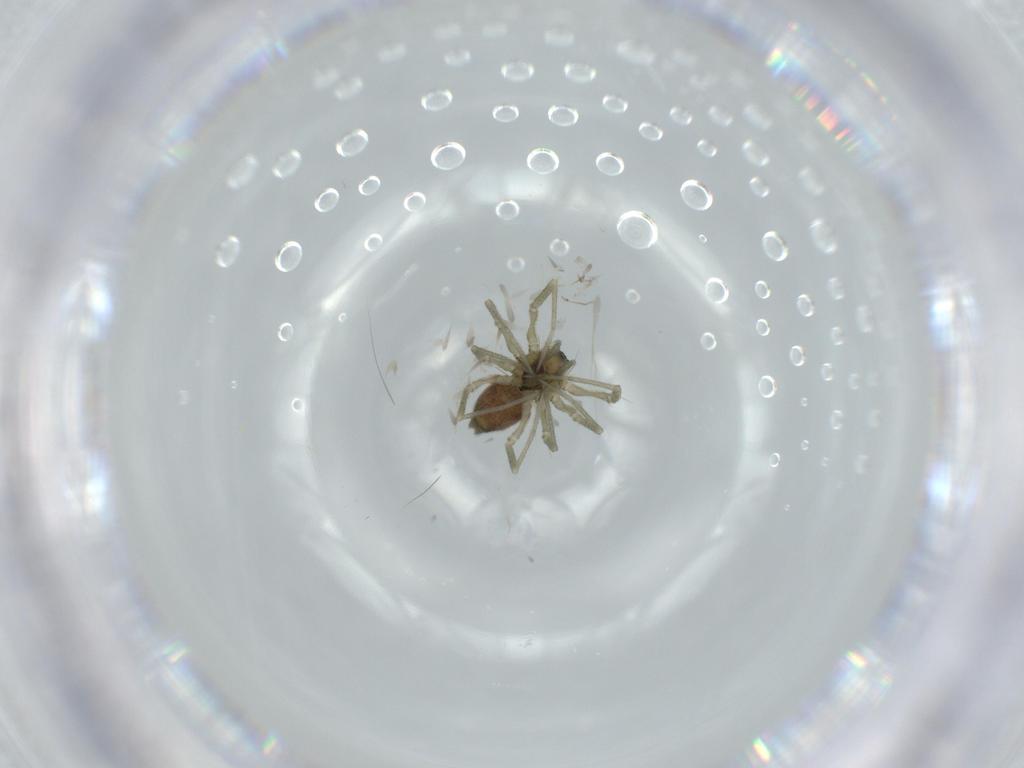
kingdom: Animalia
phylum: Arthropoda
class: Arachnida
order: Araneae
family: Linyphiidae
